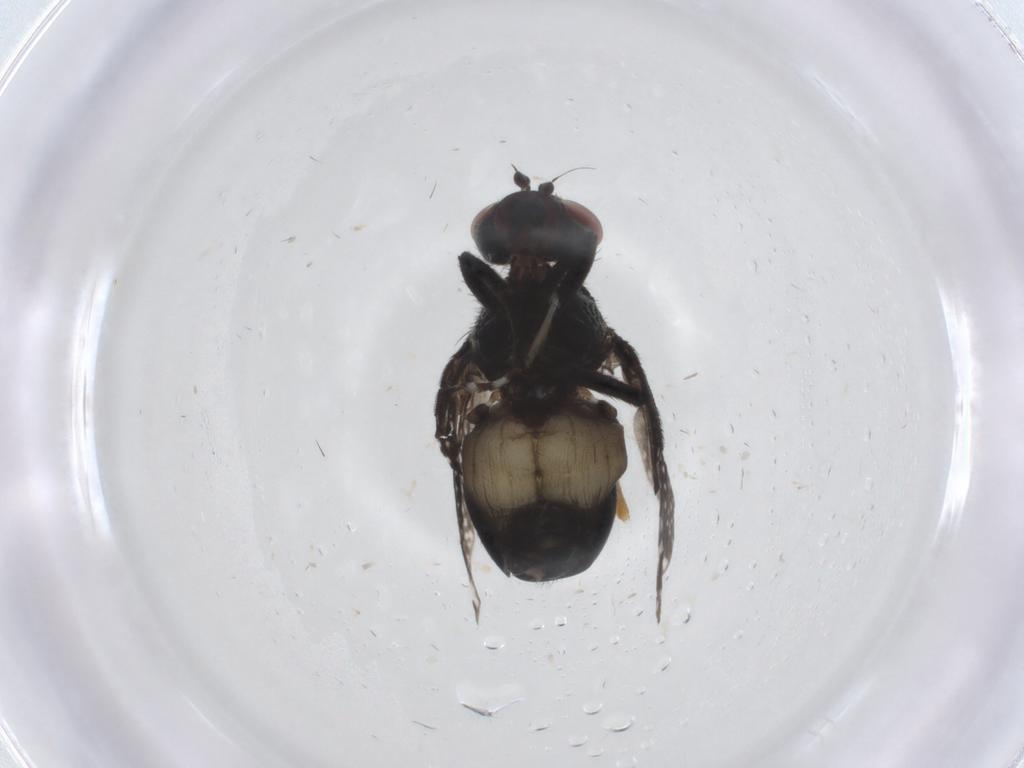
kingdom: Animalia
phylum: Arthropoda
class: Insecta
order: Diptera
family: Platystomatidae
